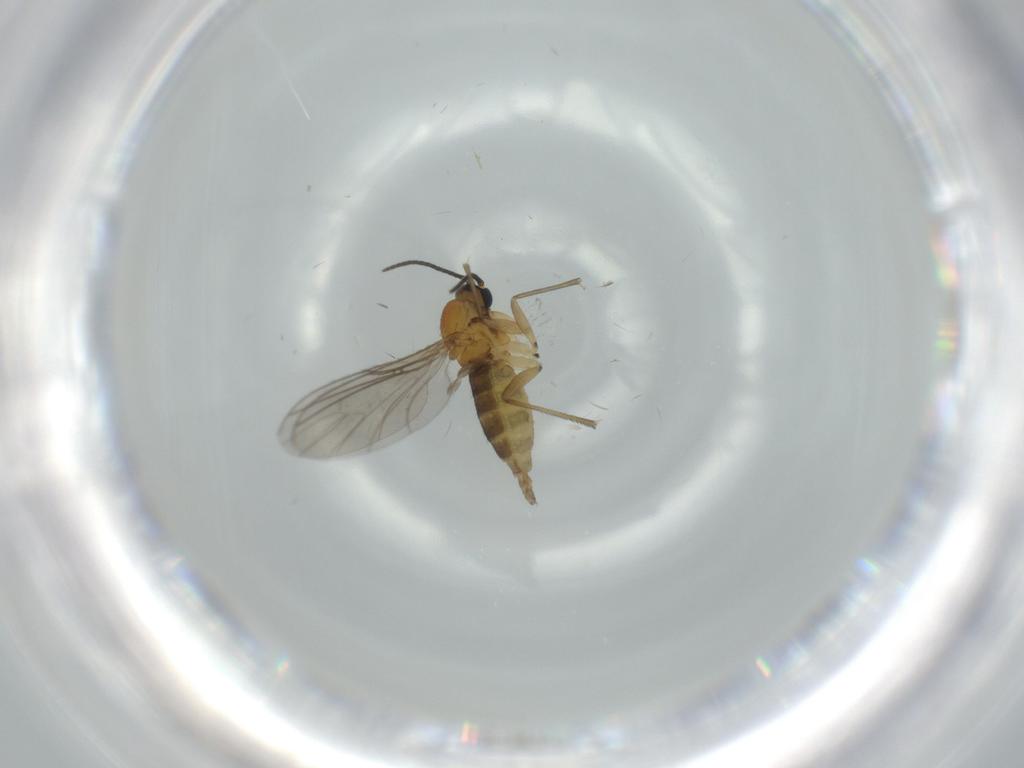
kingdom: Animalia
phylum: Arthropoda
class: Insecta
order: Diptera
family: Sciaridae
